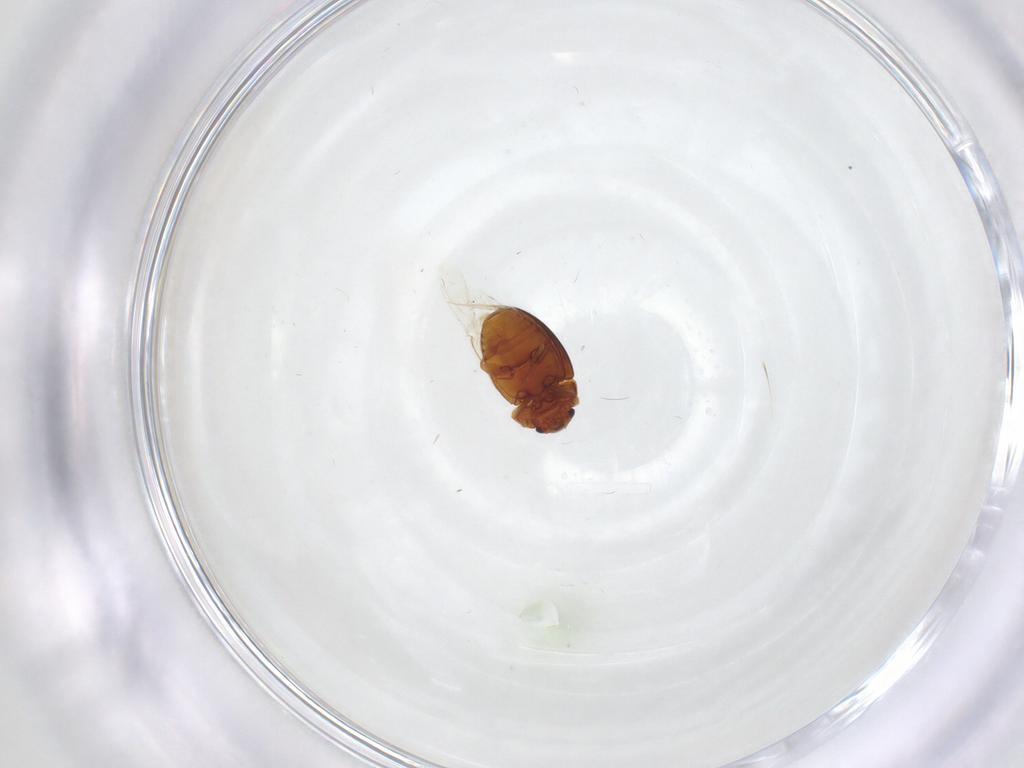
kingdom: Animalia
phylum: Arthropoda
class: Insecta
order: Coleoptera
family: Eupsilobiidae
